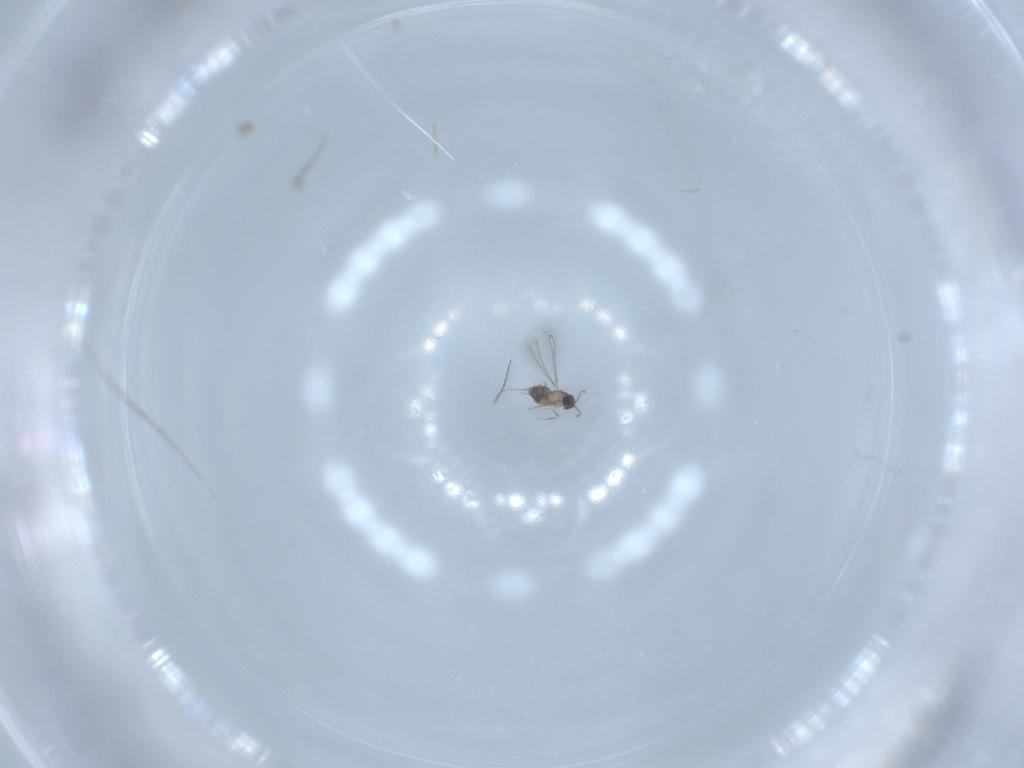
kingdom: Animalia
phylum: Arthropoda
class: Insecta
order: Hymenoptera
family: Mymaridae
